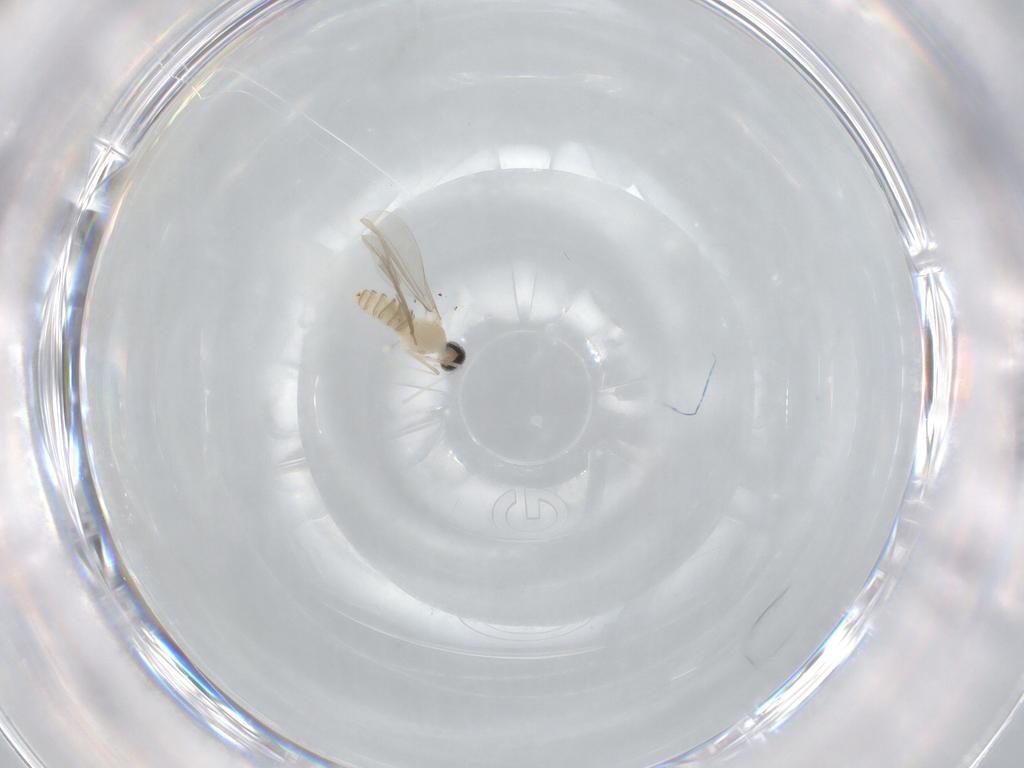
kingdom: Animalia
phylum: Arthropoda
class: Insecta
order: Diptera
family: Cecidomyiidae
